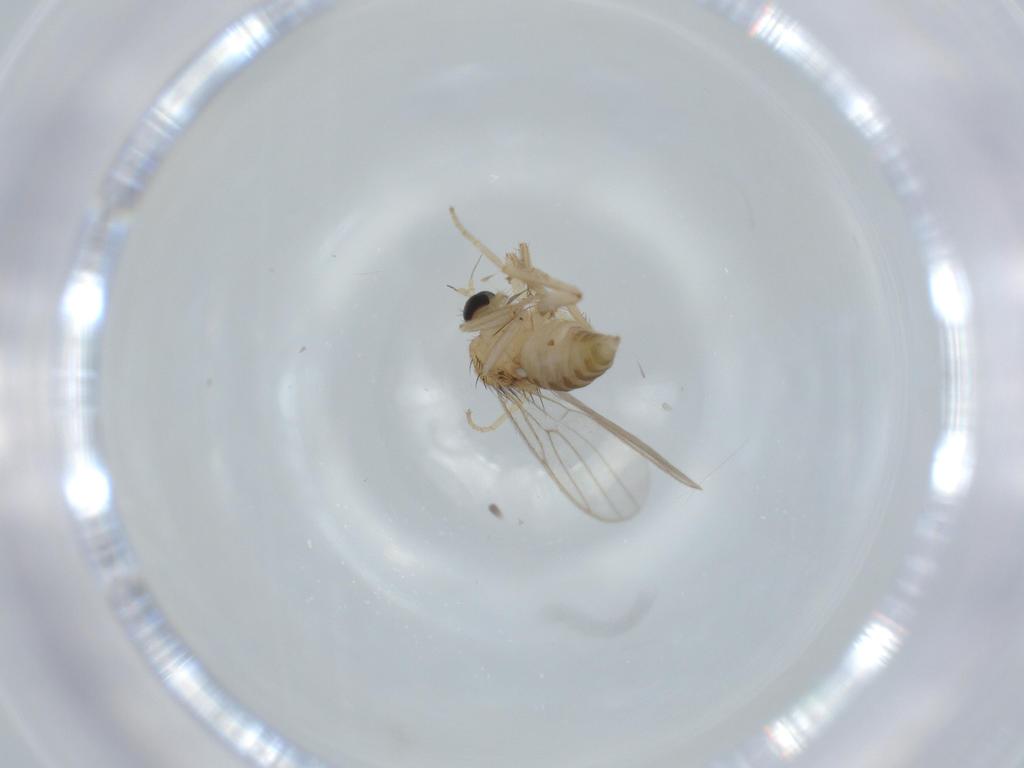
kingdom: Animalia
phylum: Arthropoda
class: Insecta
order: Diptera
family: Hybotidae
